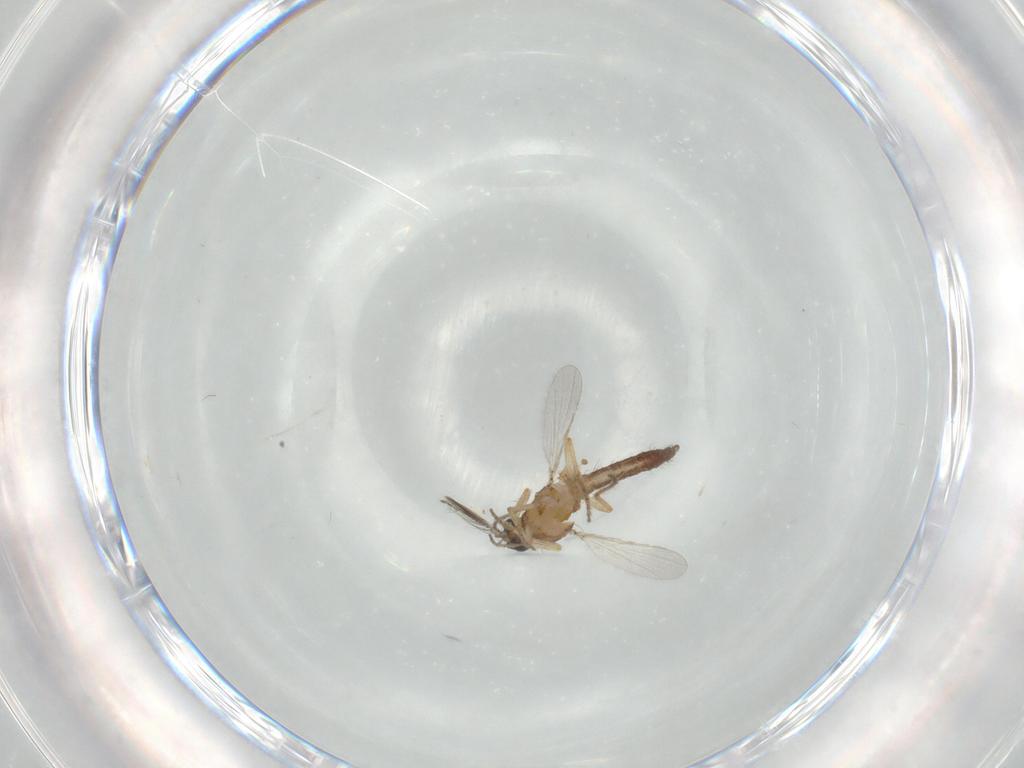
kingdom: Animalia
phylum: Arthropoda
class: Insecta
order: Diptera
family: Ceratopogonidae
